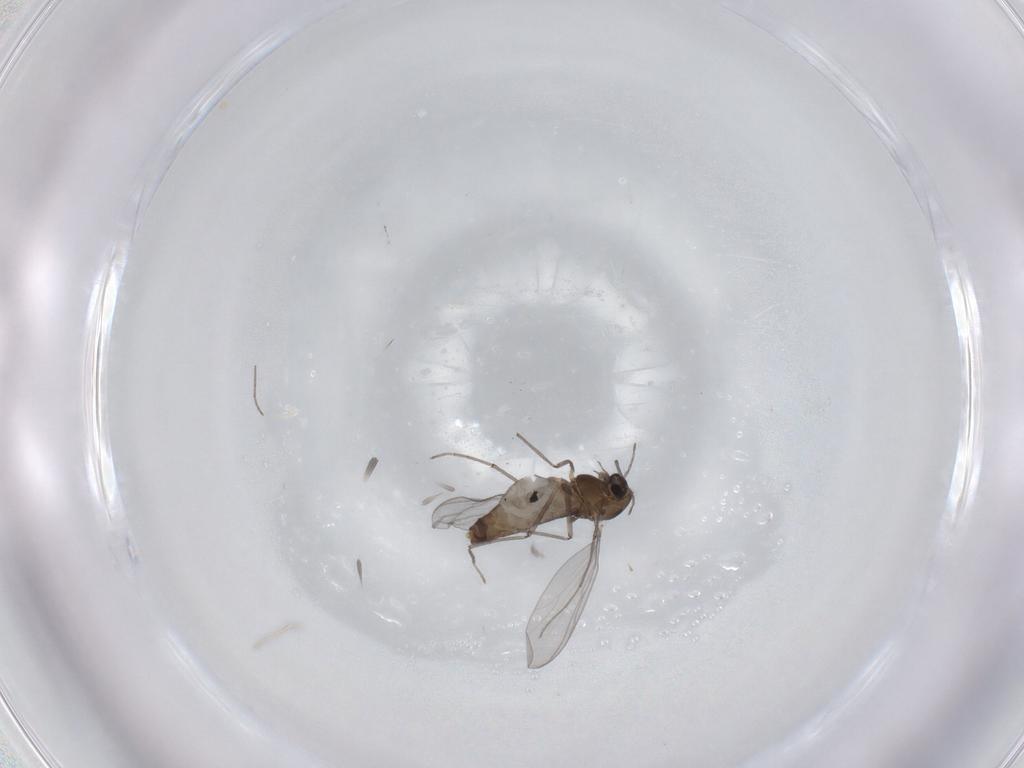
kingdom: Animalia
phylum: Arthropoda
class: Insecta
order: Diptera
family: Chironomidae
